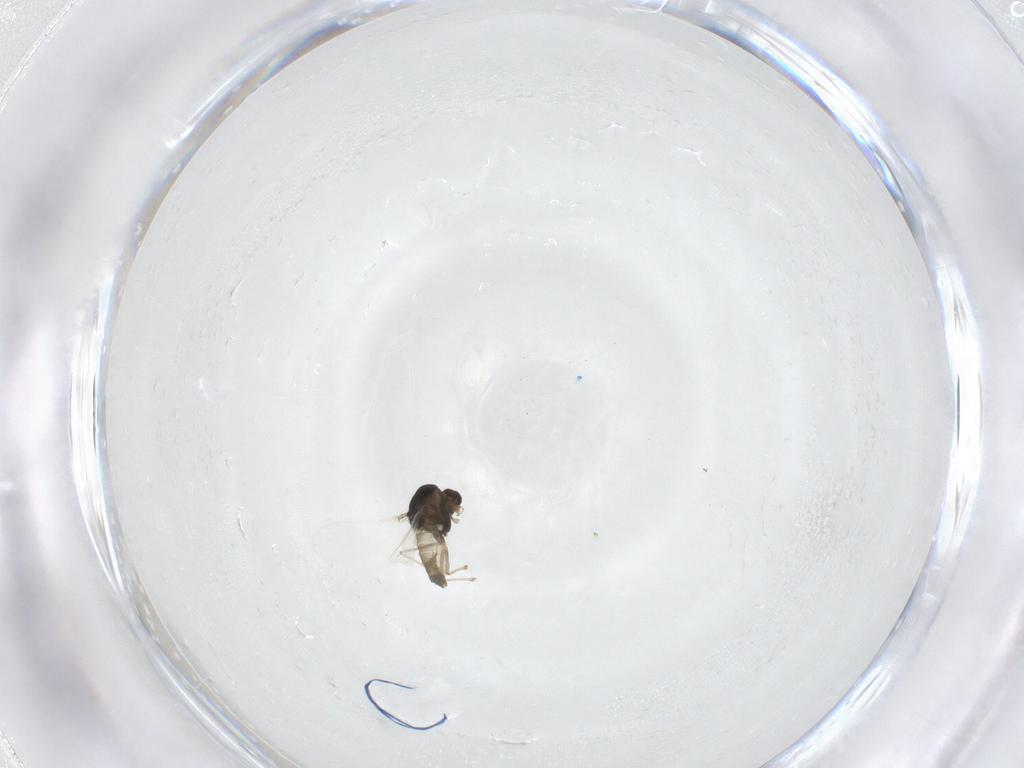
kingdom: Animalia
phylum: Arthropoda
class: Insecta
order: Diptera
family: Chironomidae
